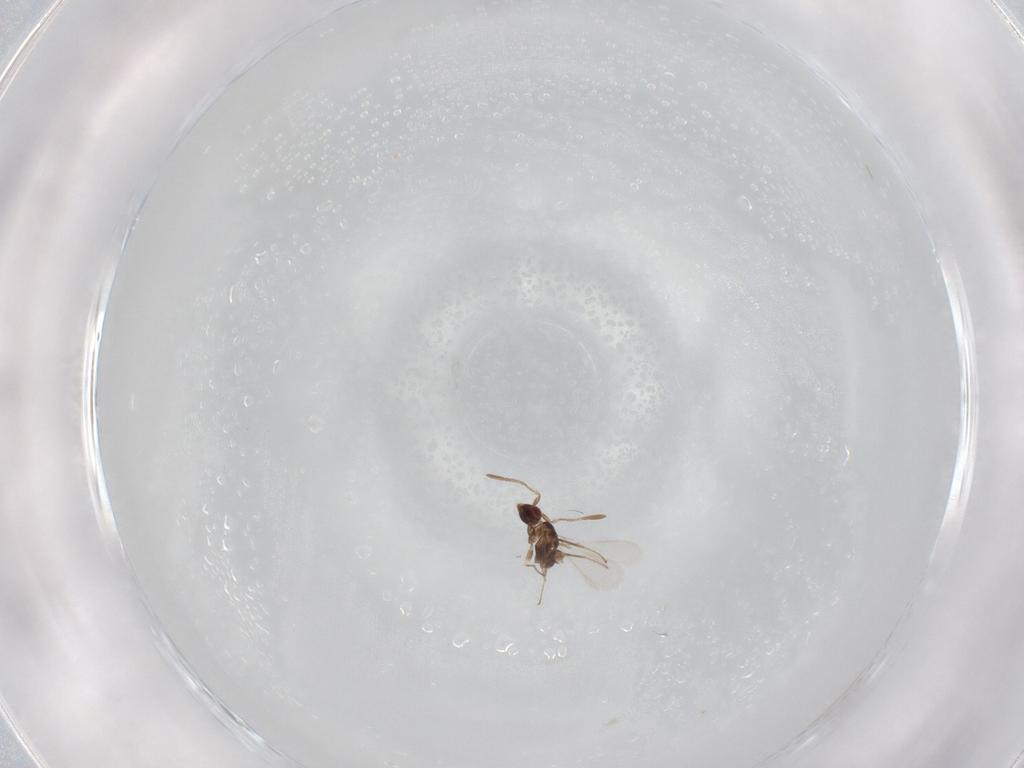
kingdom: Animalia
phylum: Arthropoda
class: Insecta
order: Hymenoptera
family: Mymaridae
